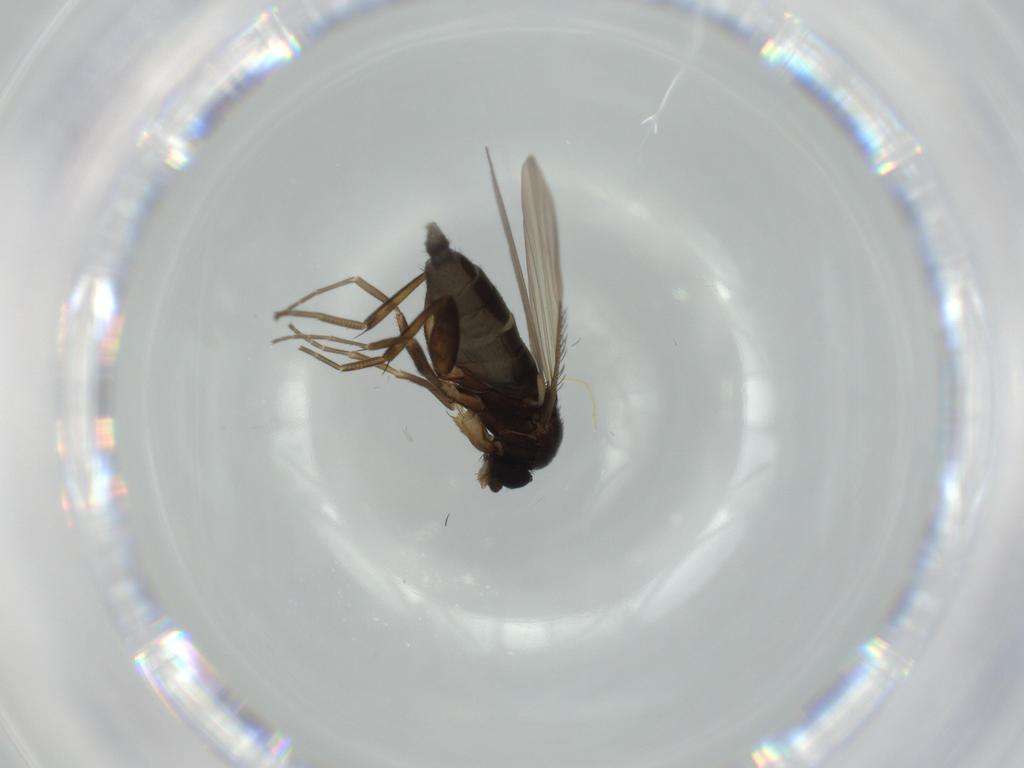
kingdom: Animalia
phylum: Arthropoda
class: Insecta
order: Diptera
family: Phoridae
